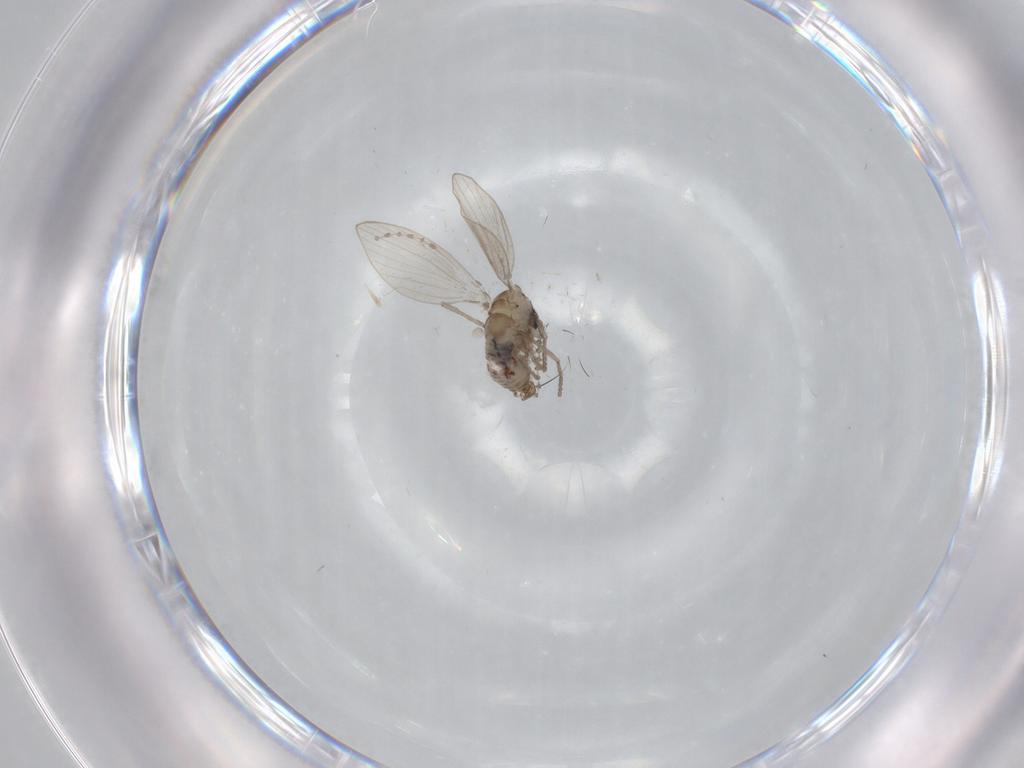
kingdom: Animalia
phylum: Arthropoda
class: Insecta
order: Diptera
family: Psychodidae
